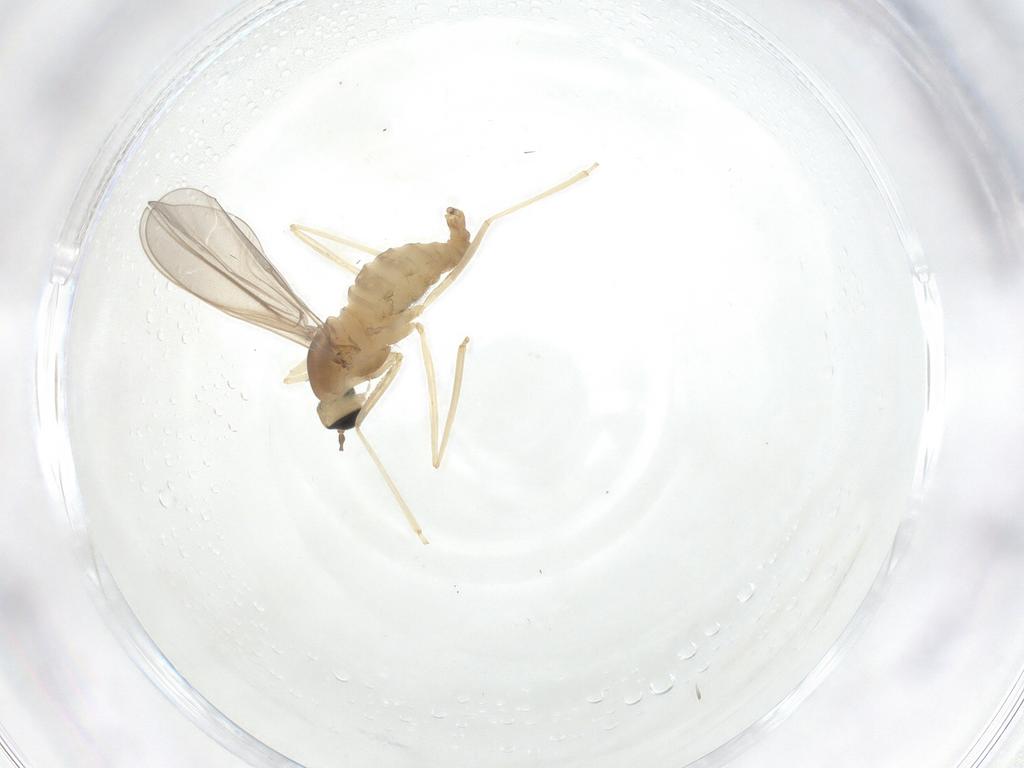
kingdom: Animalia
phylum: Arthropoda
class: Insecta
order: Diptera
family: Cecidomyiidae
